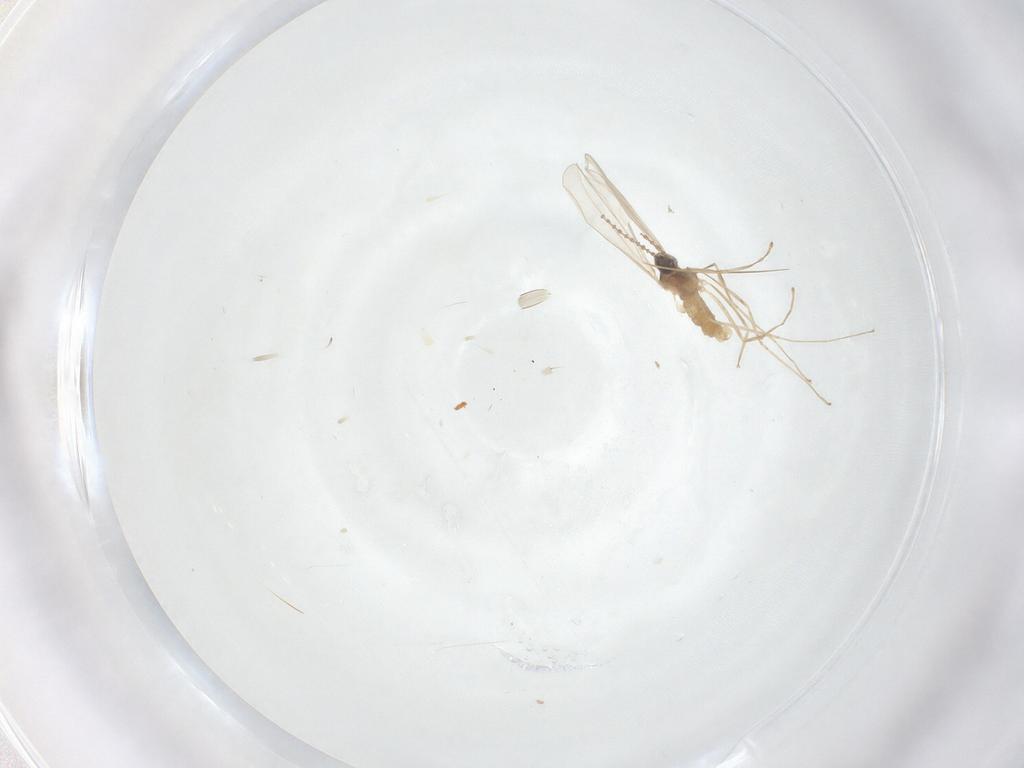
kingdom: Animalia
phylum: Arthropoda
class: Insecta
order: Diptera
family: Cecidomyiidae
